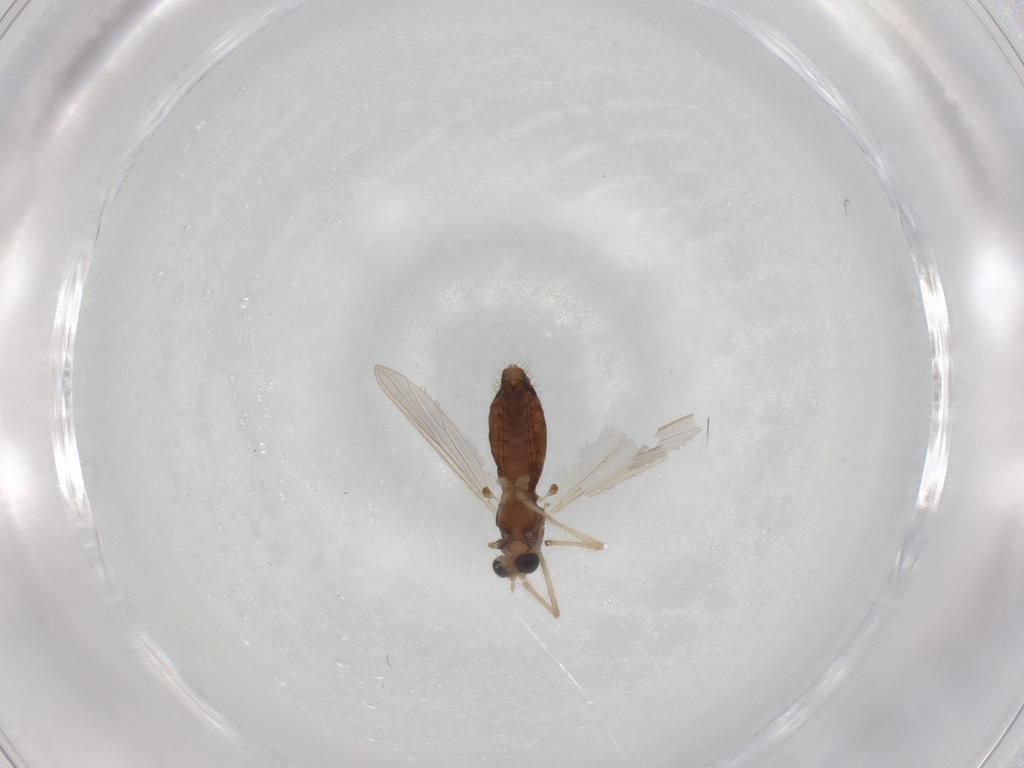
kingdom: Animalia
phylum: Arthropoda
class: Insecta
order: Diptera
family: Chironomidae
